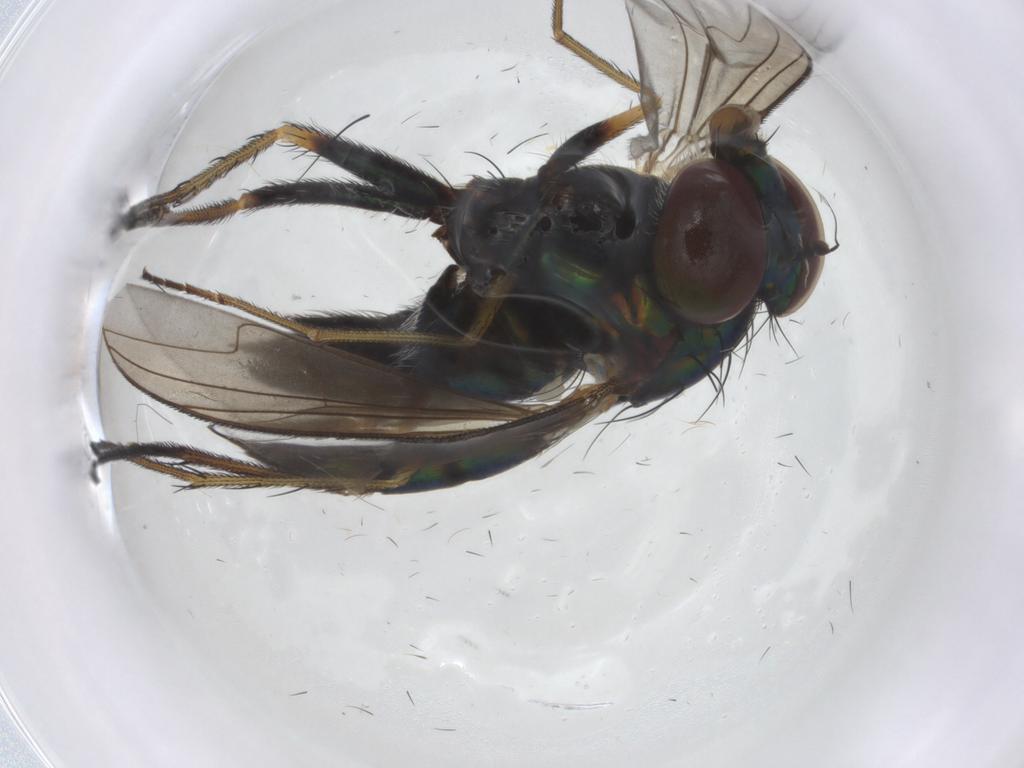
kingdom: Animalia
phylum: Arthropoda
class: Insecta
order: Diptera
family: Dolichopodidae
